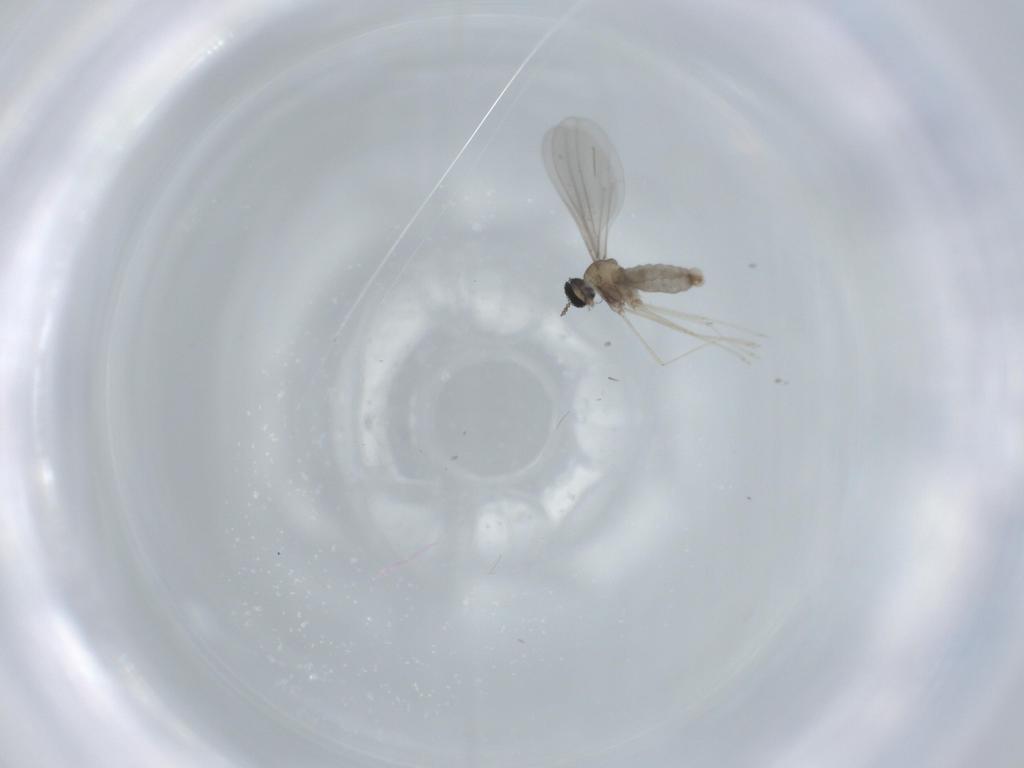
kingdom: Animalia
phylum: Arthropoda
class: Insecta
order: Diptera
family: Cecidomyiidae
